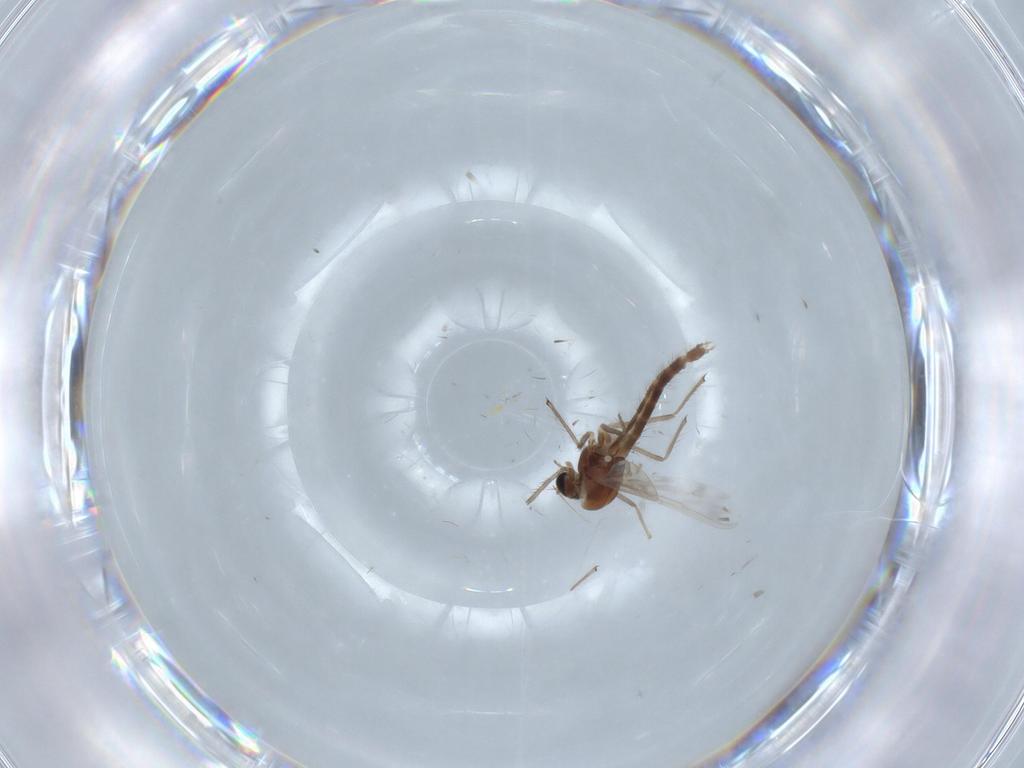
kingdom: Animalia
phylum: Arthropoda
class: Insecta
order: Diptera
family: Chironomidae
